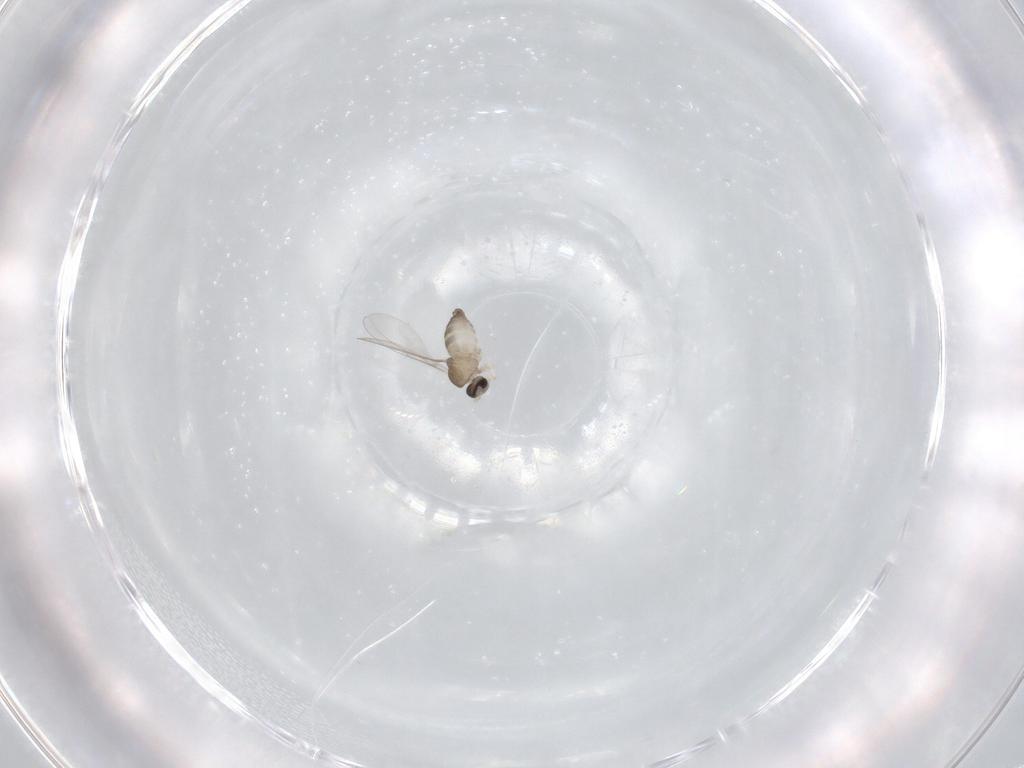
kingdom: Animalia
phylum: Arthropoda
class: Insecta
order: Diptera
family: Cecidomyiidae
